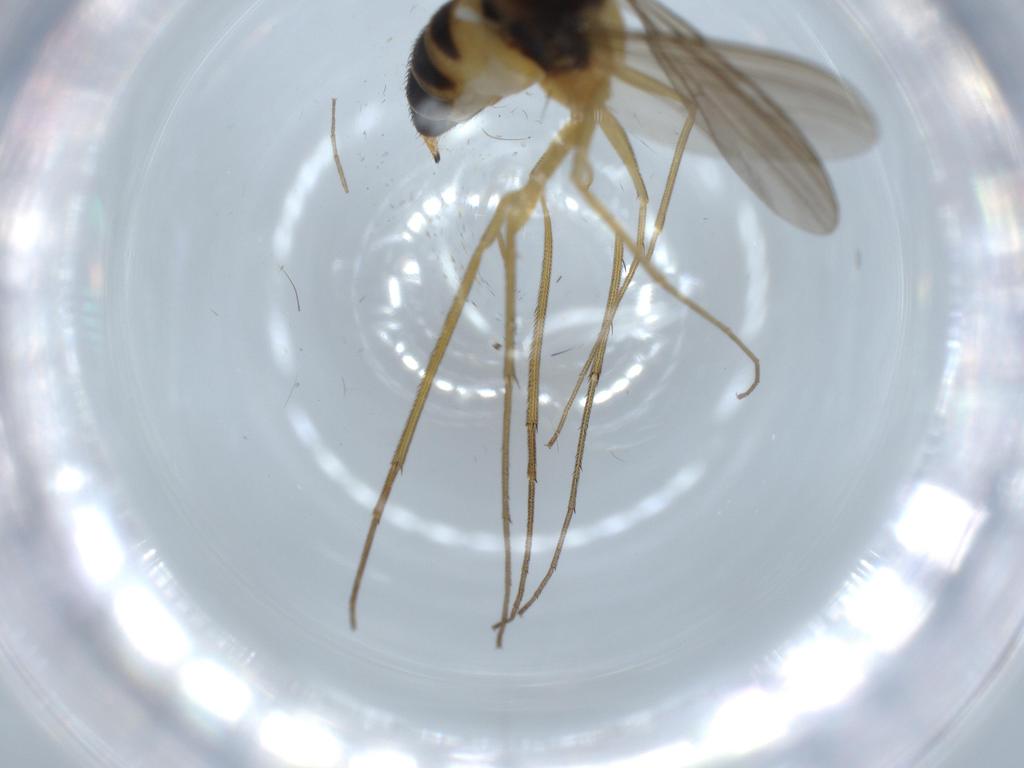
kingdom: Animalia
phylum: Arthropoda
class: Insecta
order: Diptera
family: Dolichopodidae
